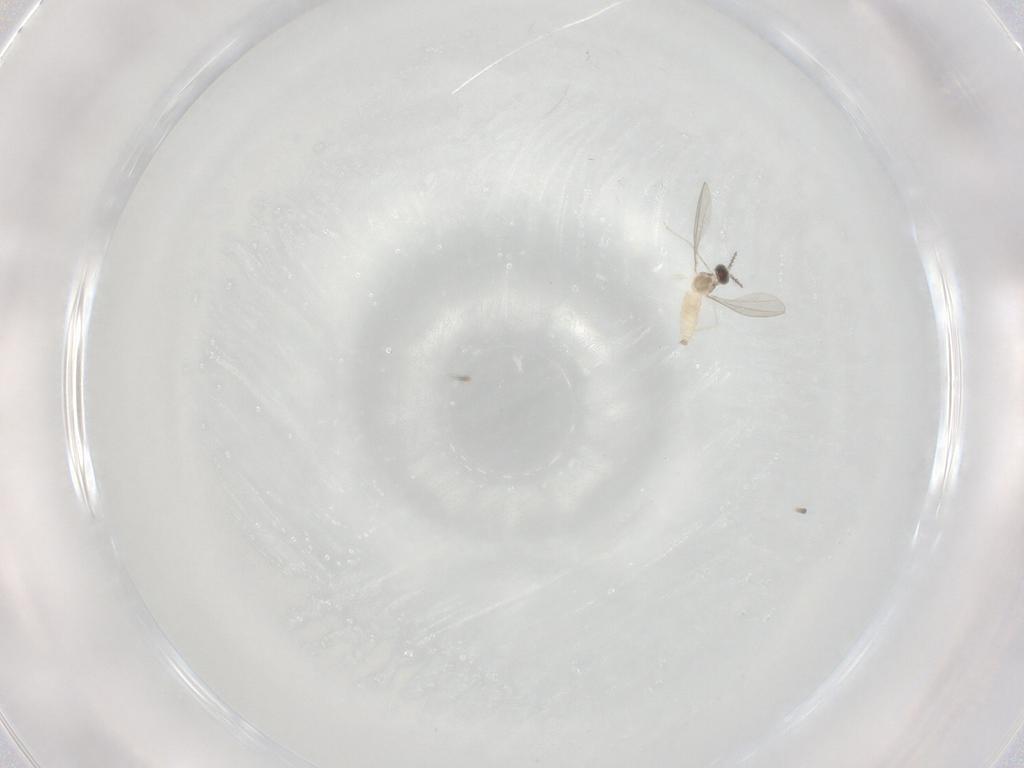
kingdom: Animalia
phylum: Arthropoda
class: Insecta
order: Diptera
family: Cecidomyiidae
